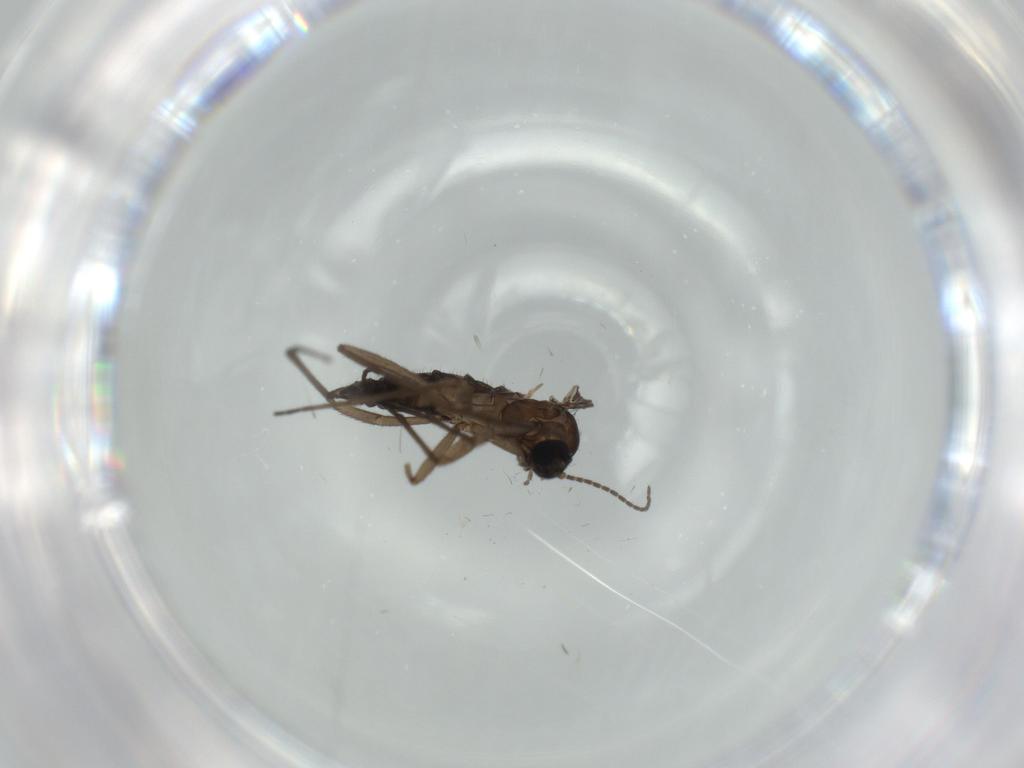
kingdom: Animalia
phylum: Arthropoda
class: Insecta
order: Diptera
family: Sciaridae
